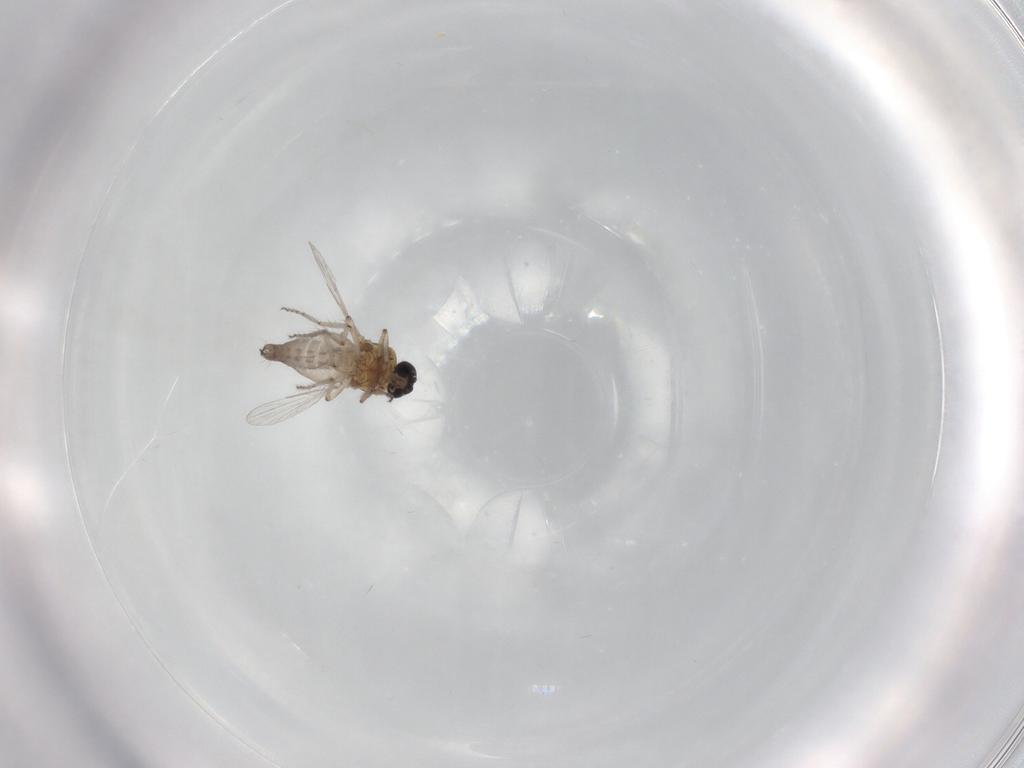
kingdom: Animalia
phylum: Arthropoda
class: Insecta
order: Diptera
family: Ceratopogonidae
